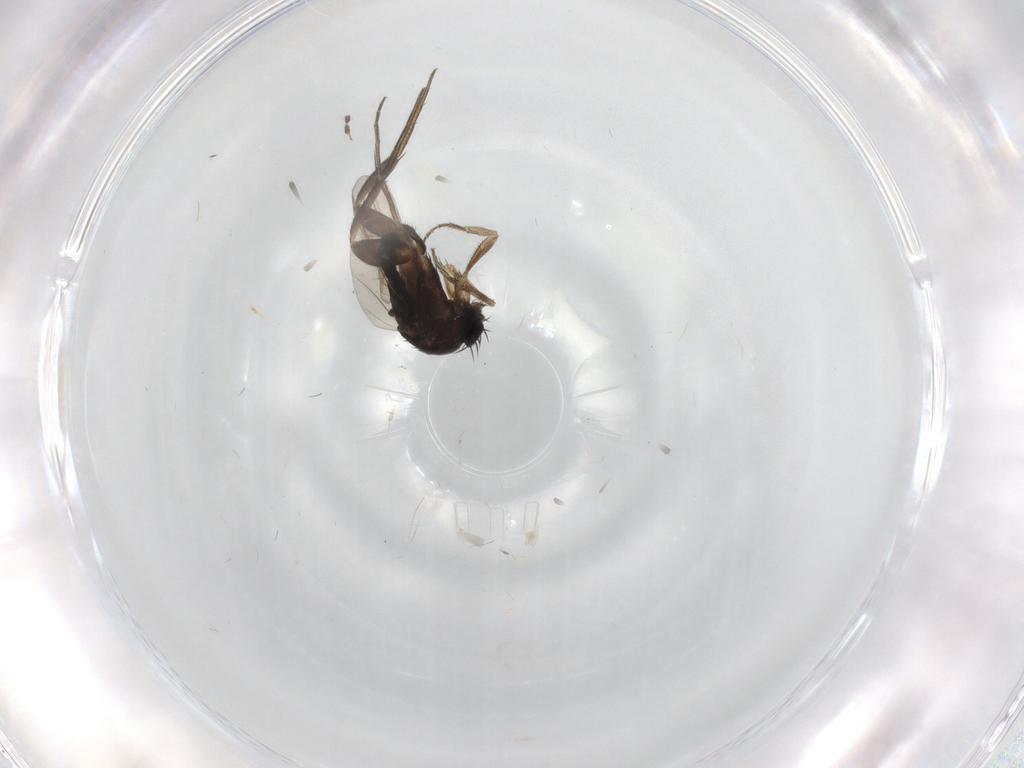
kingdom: Animalia
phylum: Arthropoda
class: Insecta
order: Diptera
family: Phoridae
